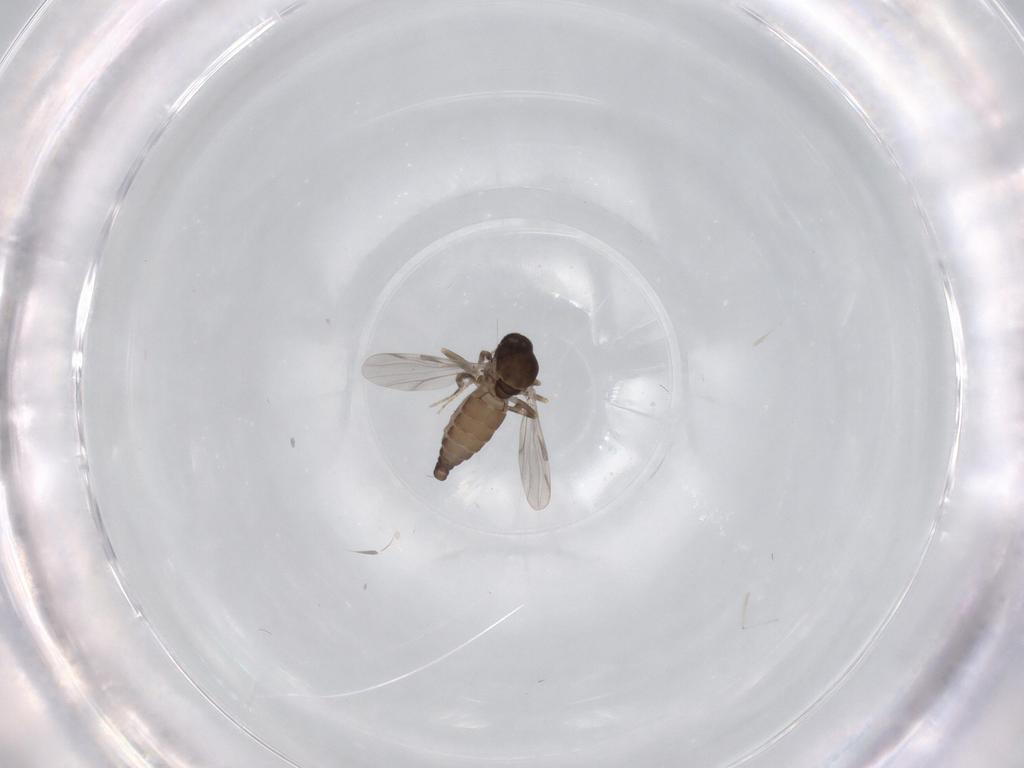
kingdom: Animalia
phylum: Arthropoda
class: Insecta
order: Diptera
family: Ceratopogonidae
